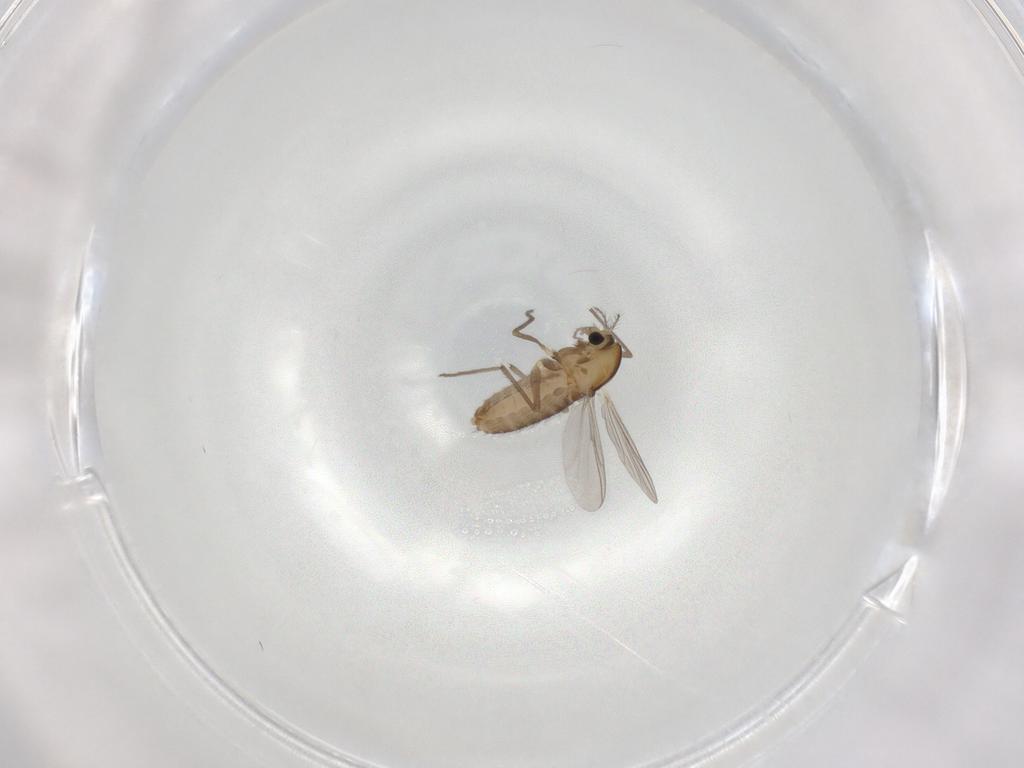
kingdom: Animalia
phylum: Arthropoda
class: Insecta
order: Diptera
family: Chironomidae
